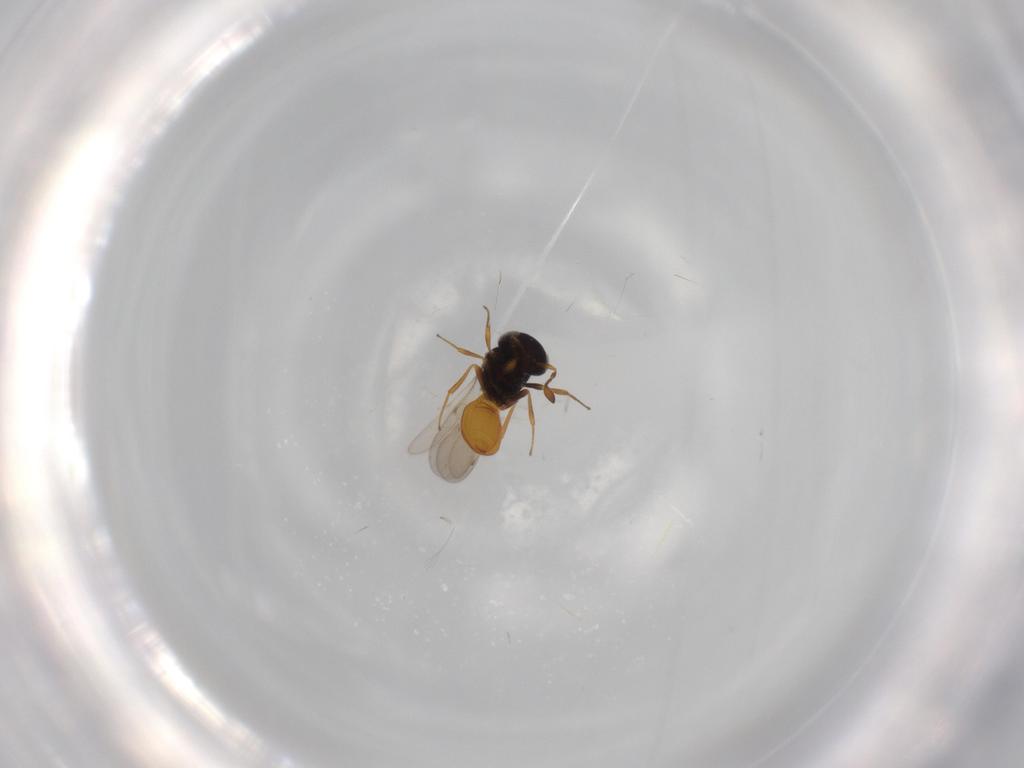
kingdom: Animalia
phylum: Arthropoda
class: Insecta
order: Hymenoptera
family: Scelionidae
